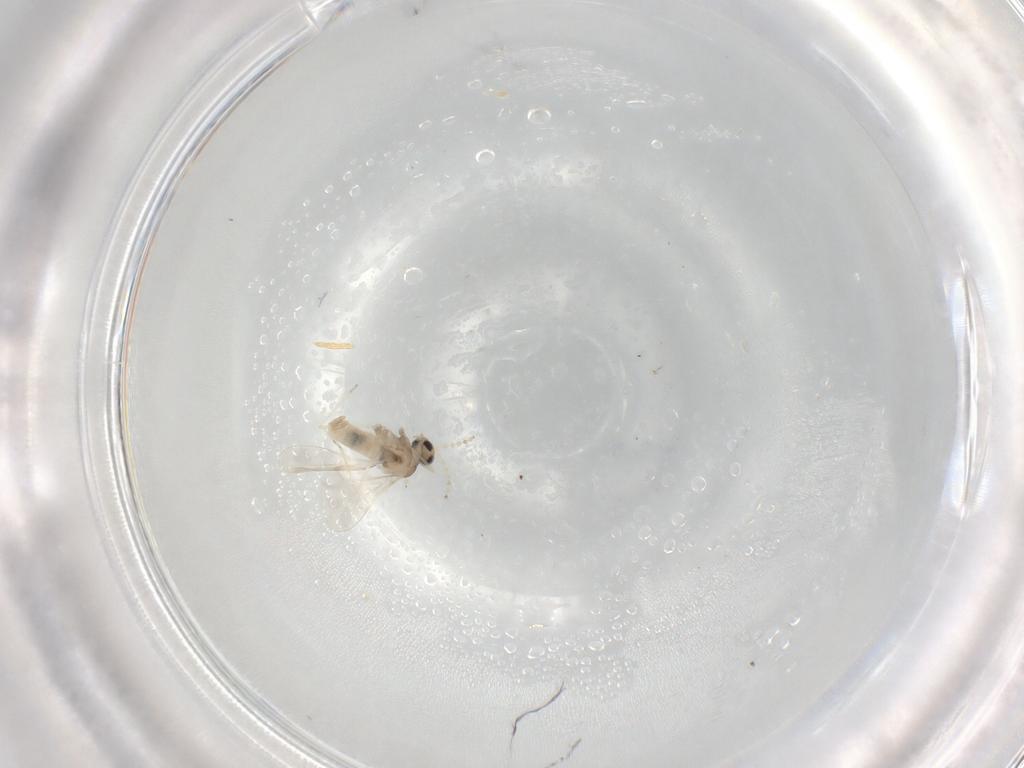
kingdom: Animalia
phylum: Arthropoda
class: Insecta
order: Diptera
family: Cecidomyiidae
